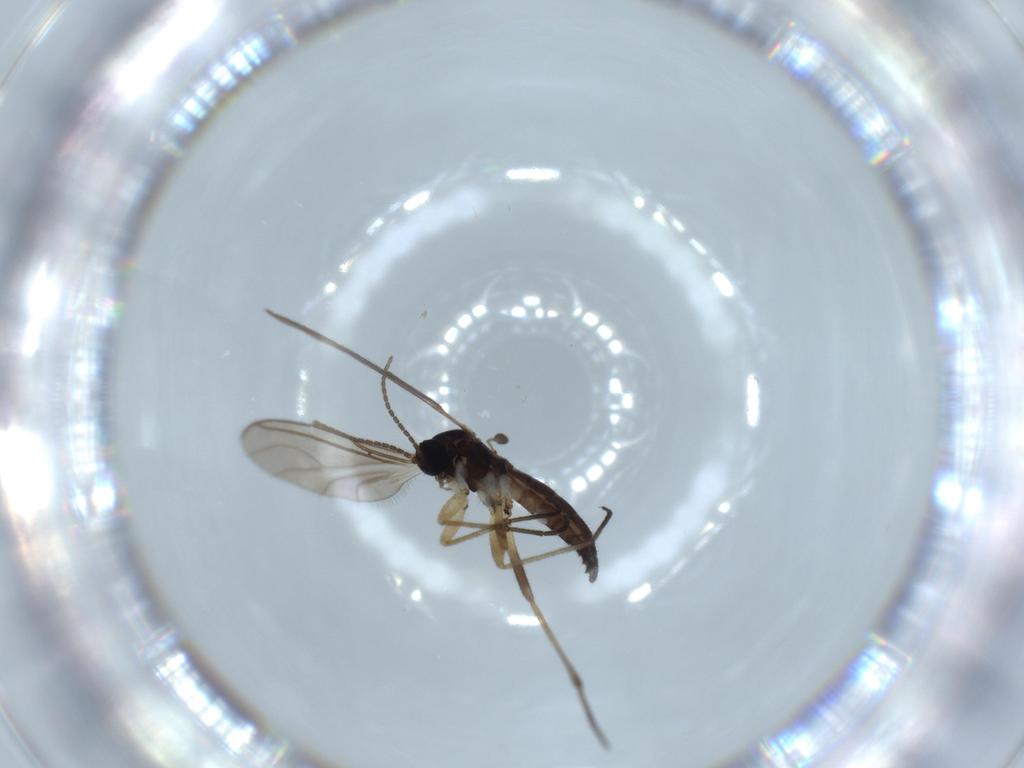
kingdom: Animalia
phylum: Arthropoda
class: Insecta
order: Diptera
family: Sciaridae
